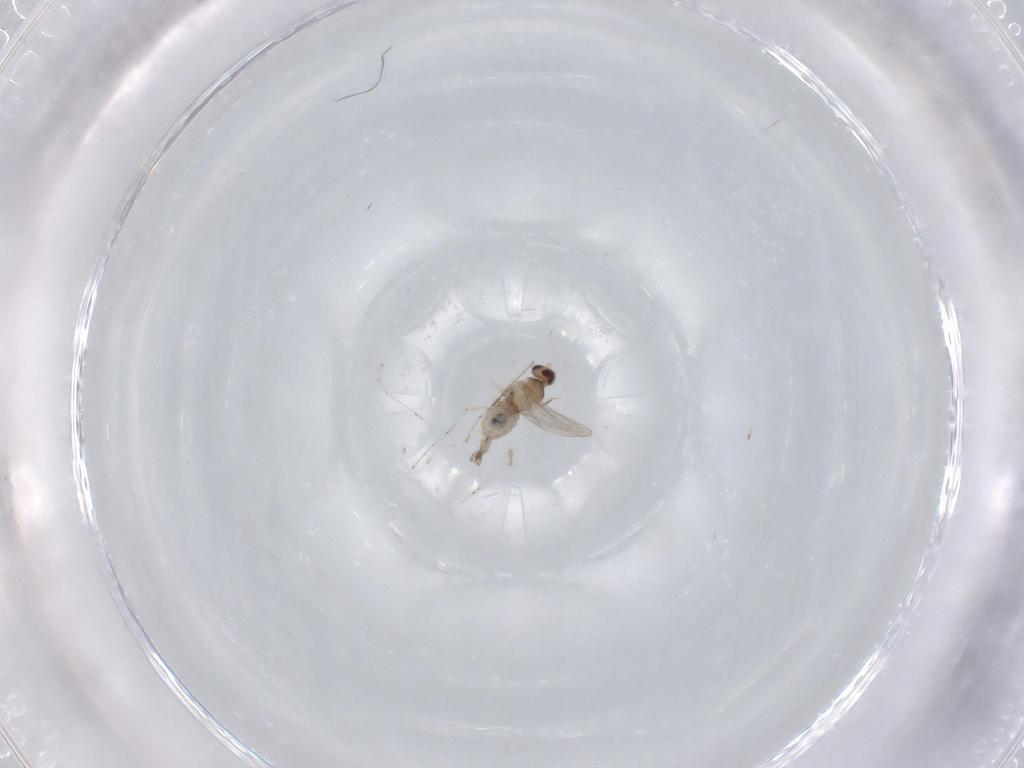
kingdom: Animalia
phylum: Arthropoda
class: Insecta
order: Diptera
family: Cecidomyiidae
